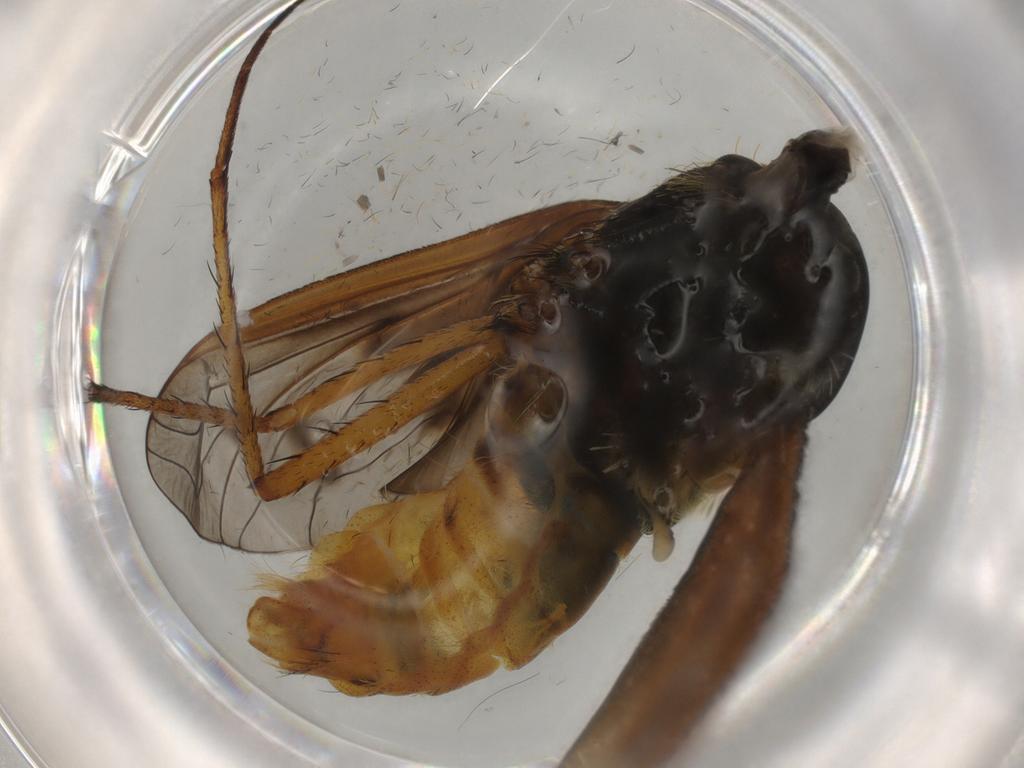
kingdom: Animalia
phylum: Arthropoda
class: Insecta
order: Diptera
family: Bombyliidae
